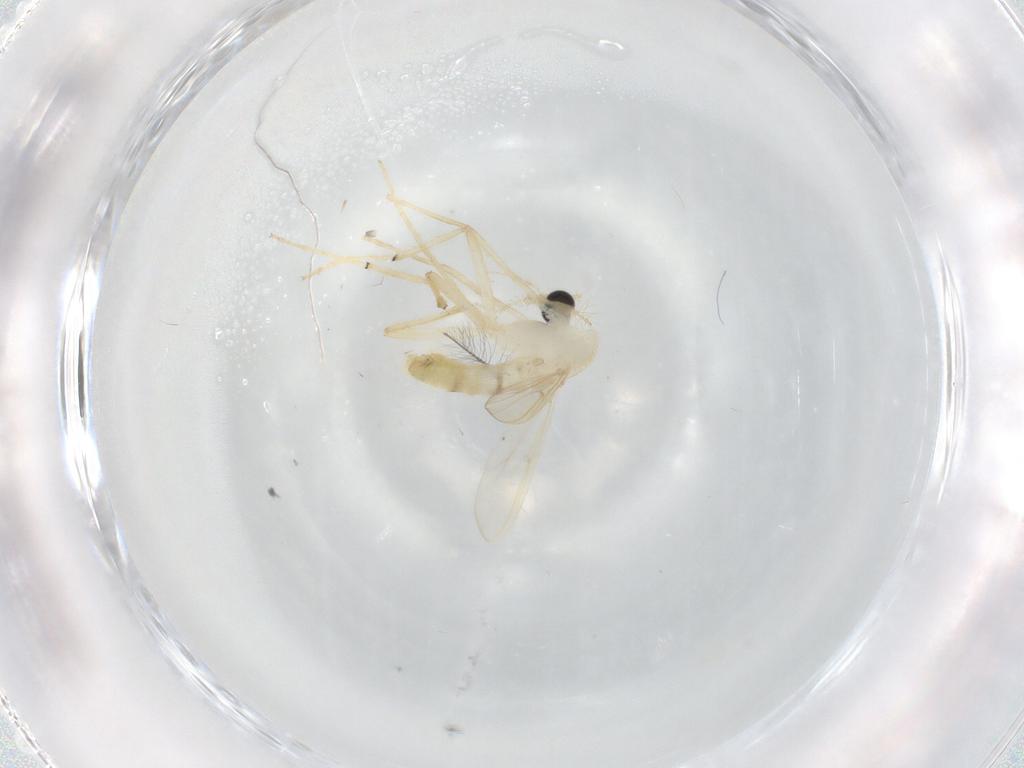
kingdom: Animalia
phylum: Arthropoda
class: Insecta
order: Diptera
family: Chironomidae
